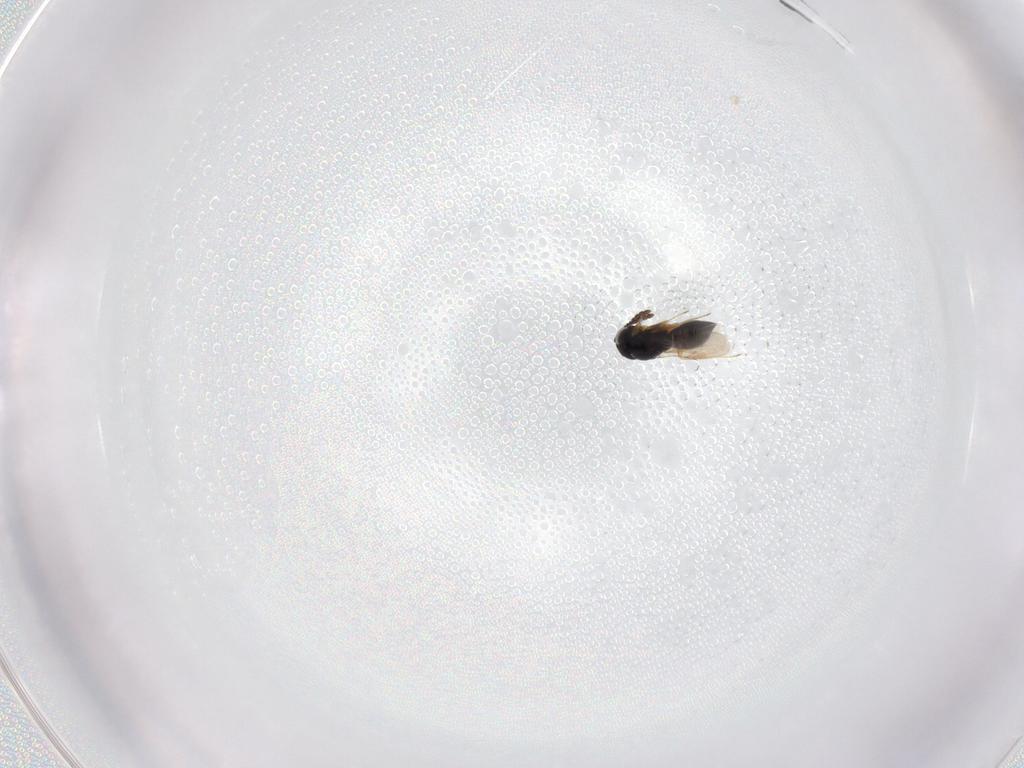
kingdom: Animalia
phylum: Arthropoda
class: Insecta
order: Hymenoptera
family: Scelionidae
